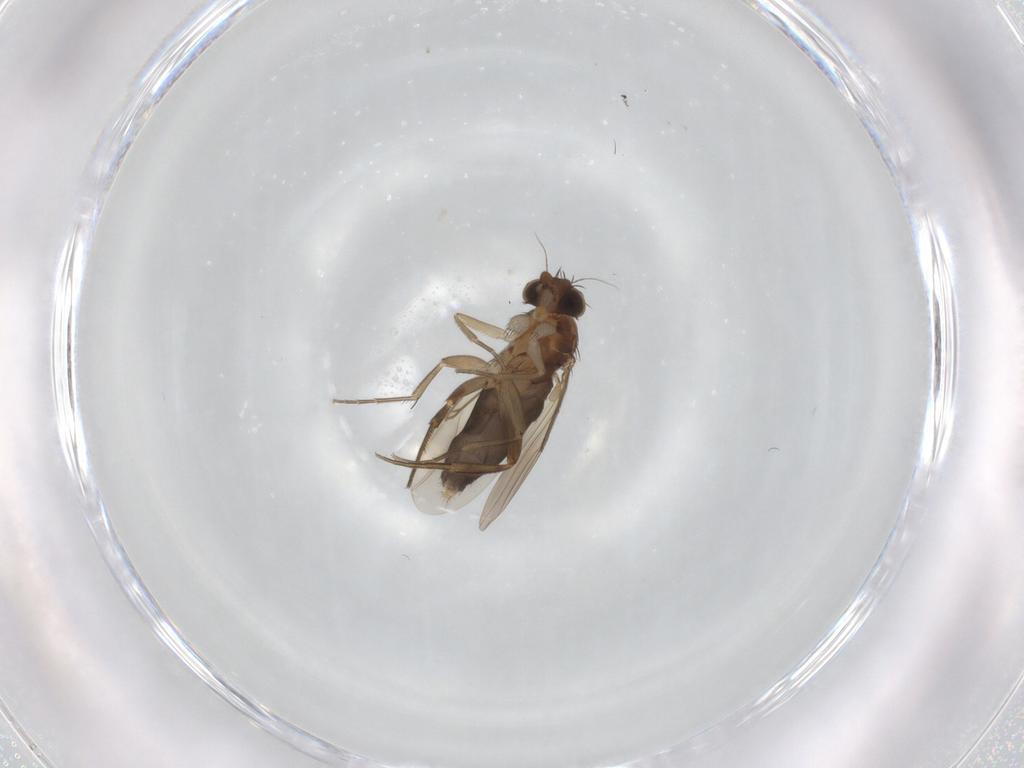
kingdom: Animalia
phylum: Arthropoda
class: Insecta
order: Diptera
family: Phoridae
